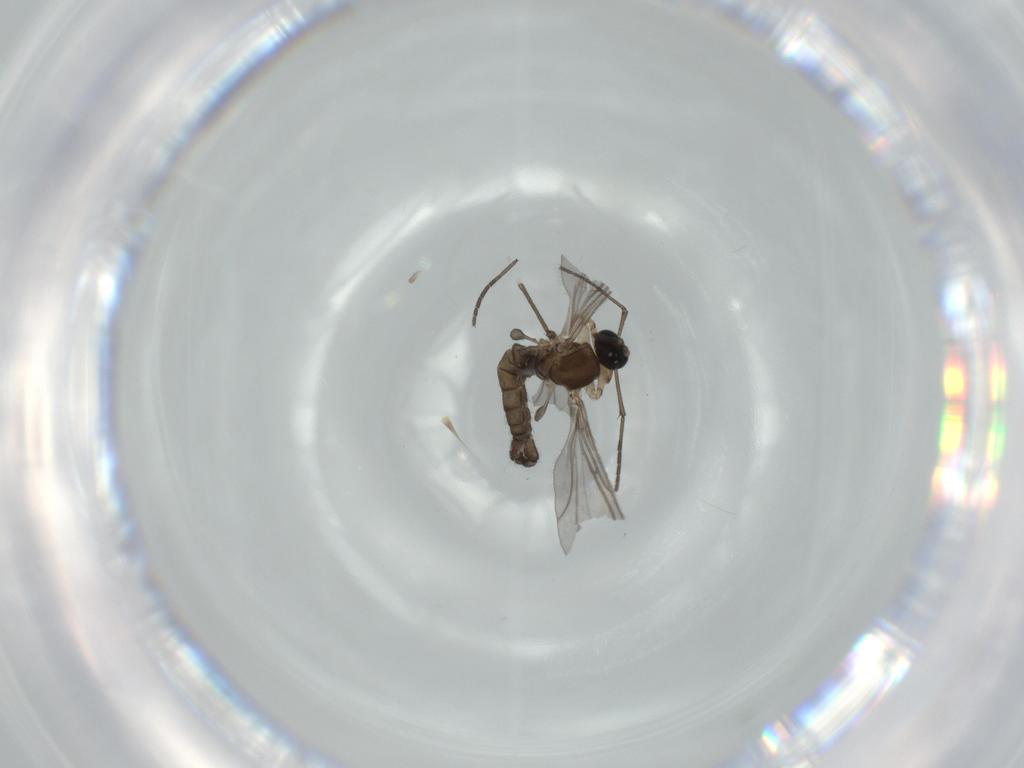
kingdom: Animalia
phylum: Arthropoda
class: Insecta
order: Diptera
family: Sciaridae
